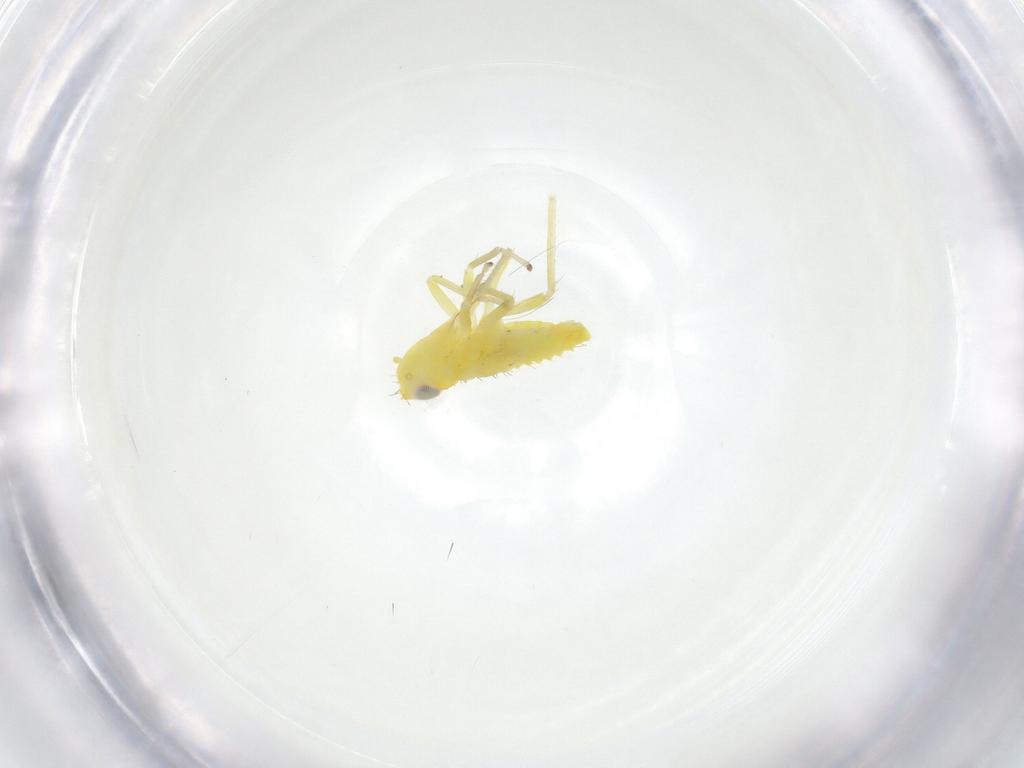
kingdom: Animalia
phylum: Arthropoda
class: Insecta
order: Hemiptera
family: Cicadellidae
